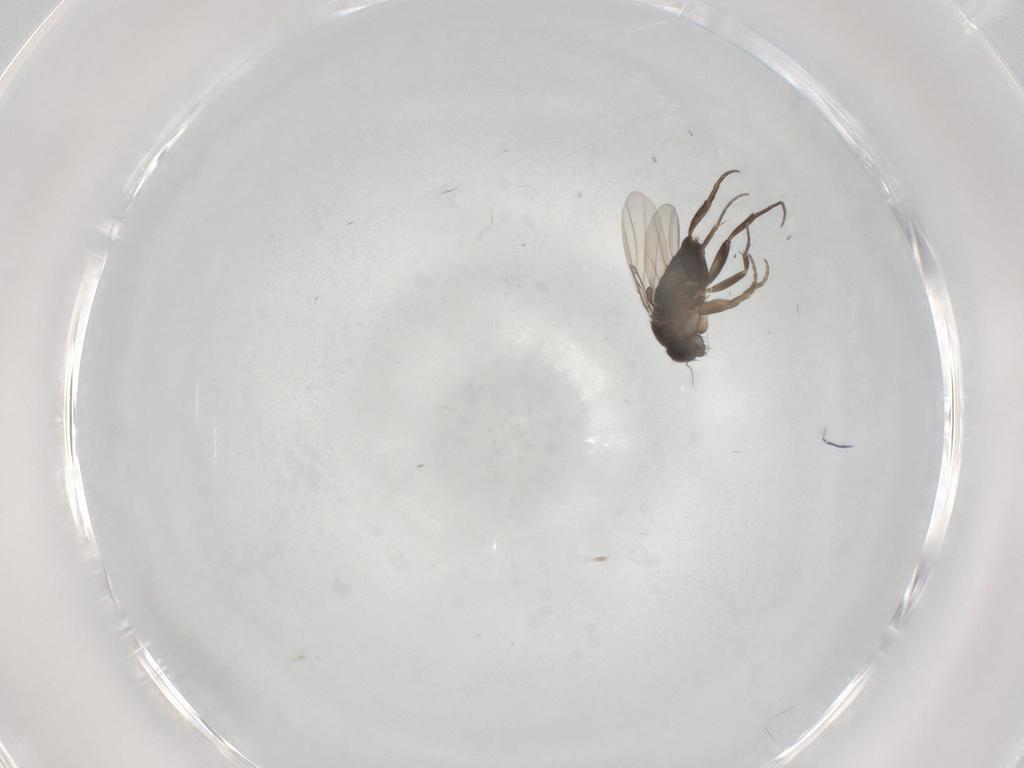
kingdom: Animalia
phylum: Arthropoda
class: Insecta
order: Diptera
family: Phoridae
